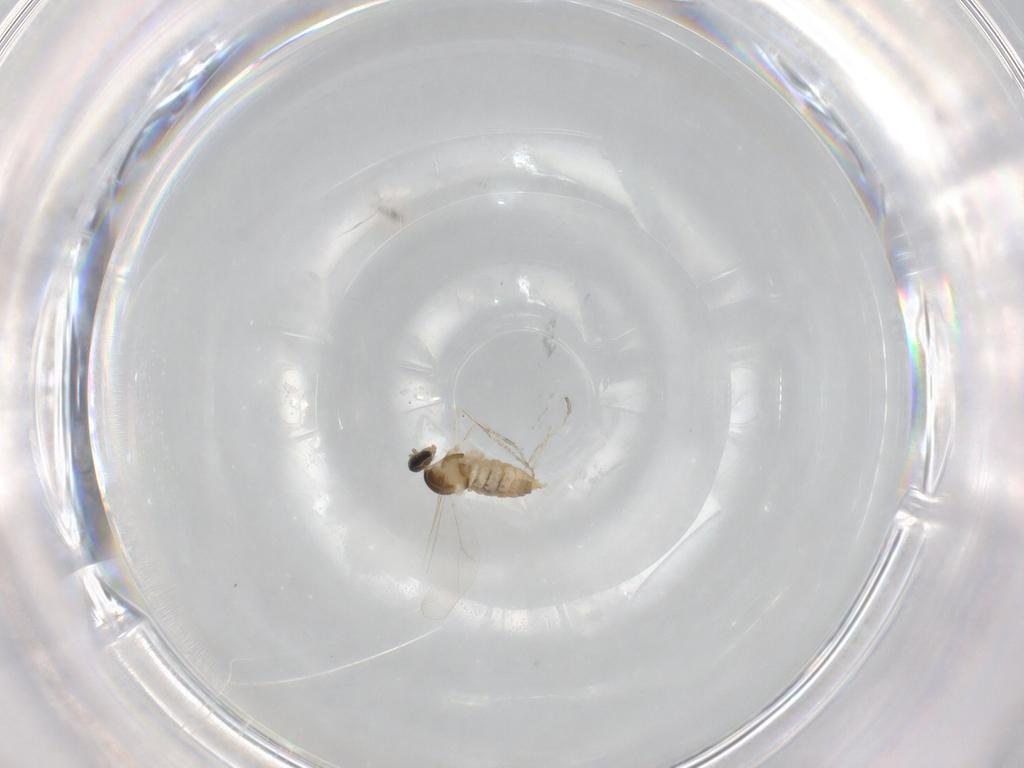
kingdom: Animalia
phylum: Arthropoda
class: Insecta
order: Diptera
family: Cecidomyiidae
